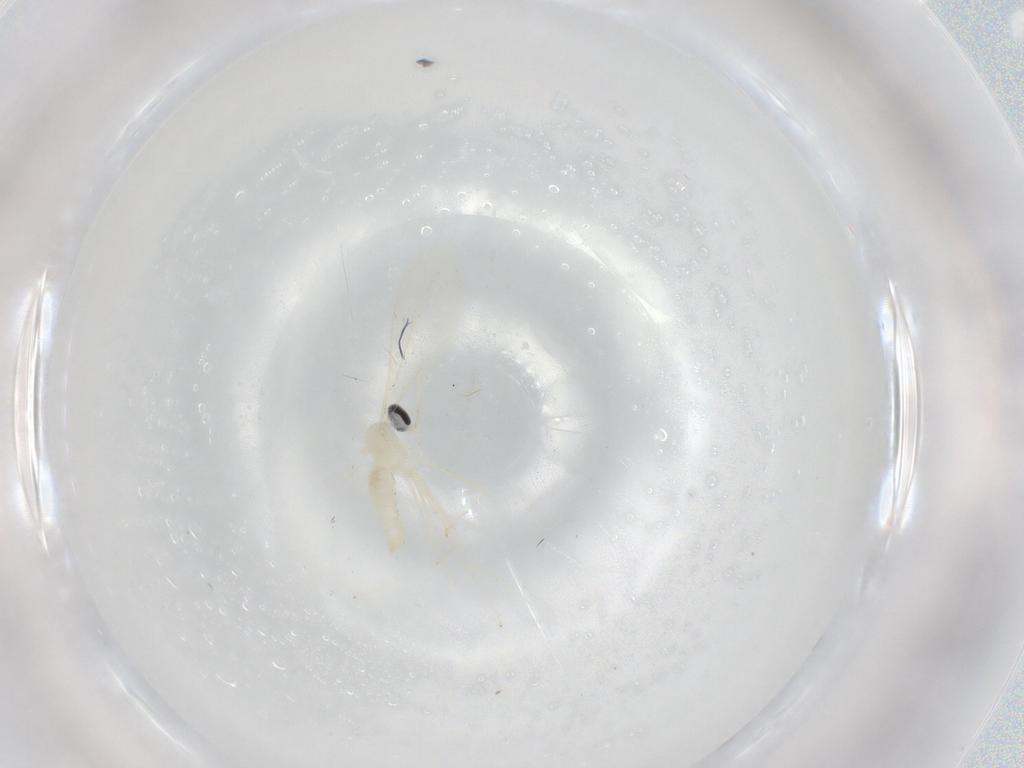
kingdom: Animalia
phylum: Arthropoda
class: Insecta
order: Diptera
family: Cecidomyiidae
